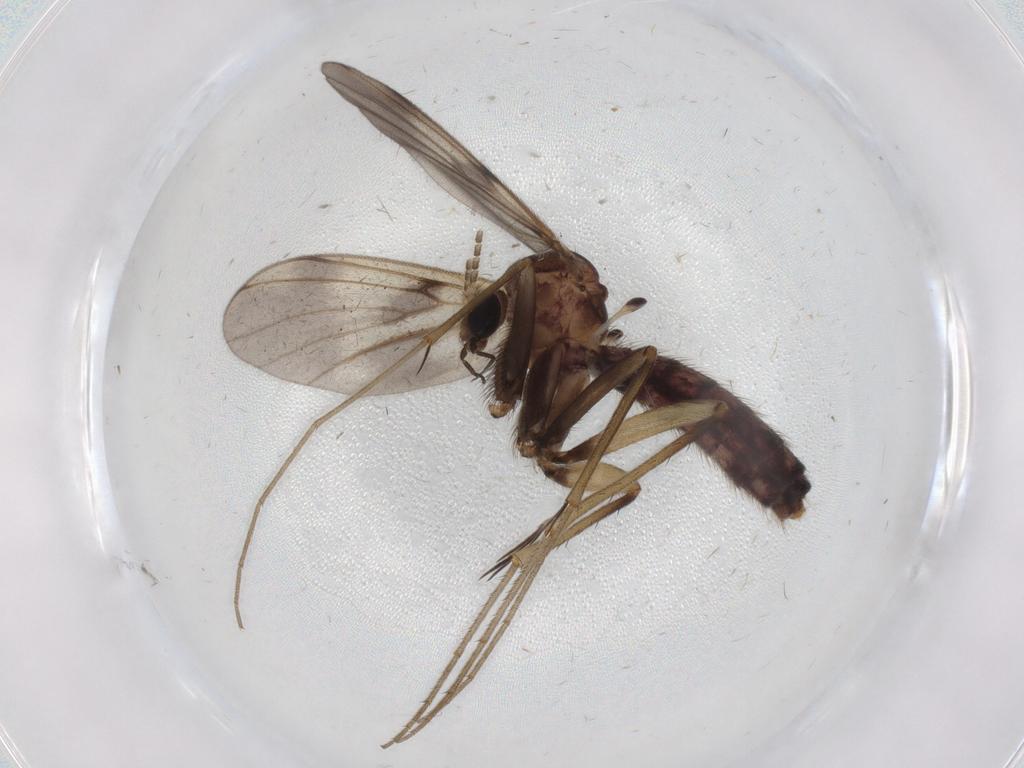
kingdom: Animalia
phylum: Arthropoda
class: Insecta
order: Diptera
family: Mycetophilidae
